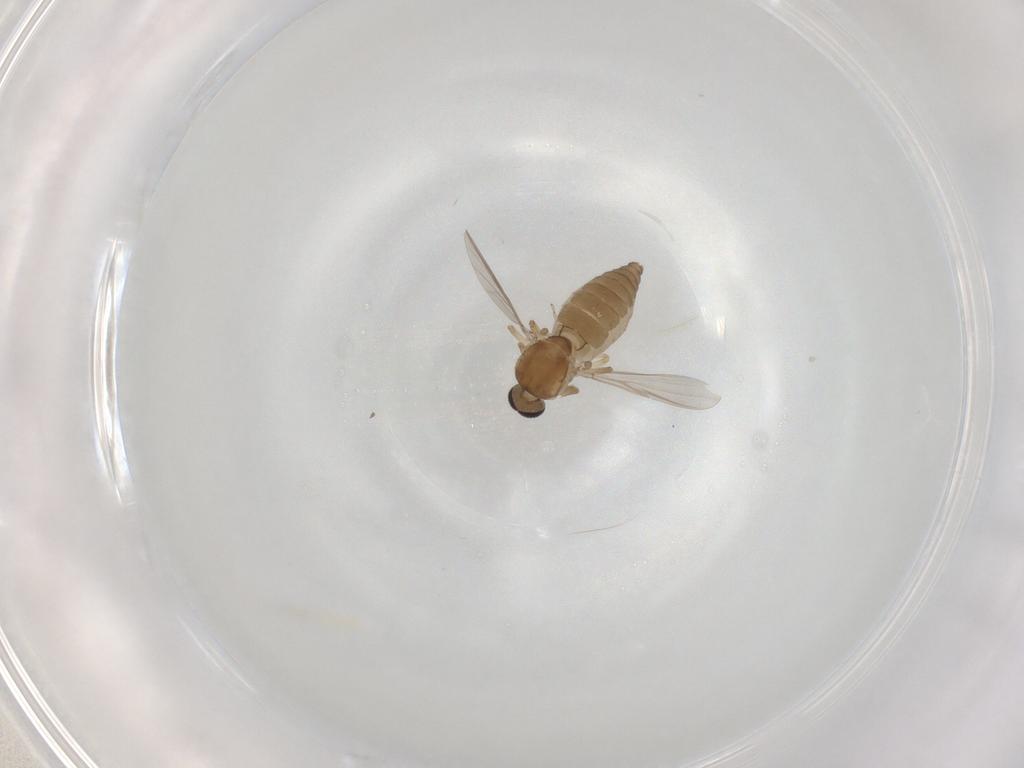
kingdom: Animalia
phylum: Arthropoda
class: Insecta
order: Diptera
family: Ceratopogonidae
